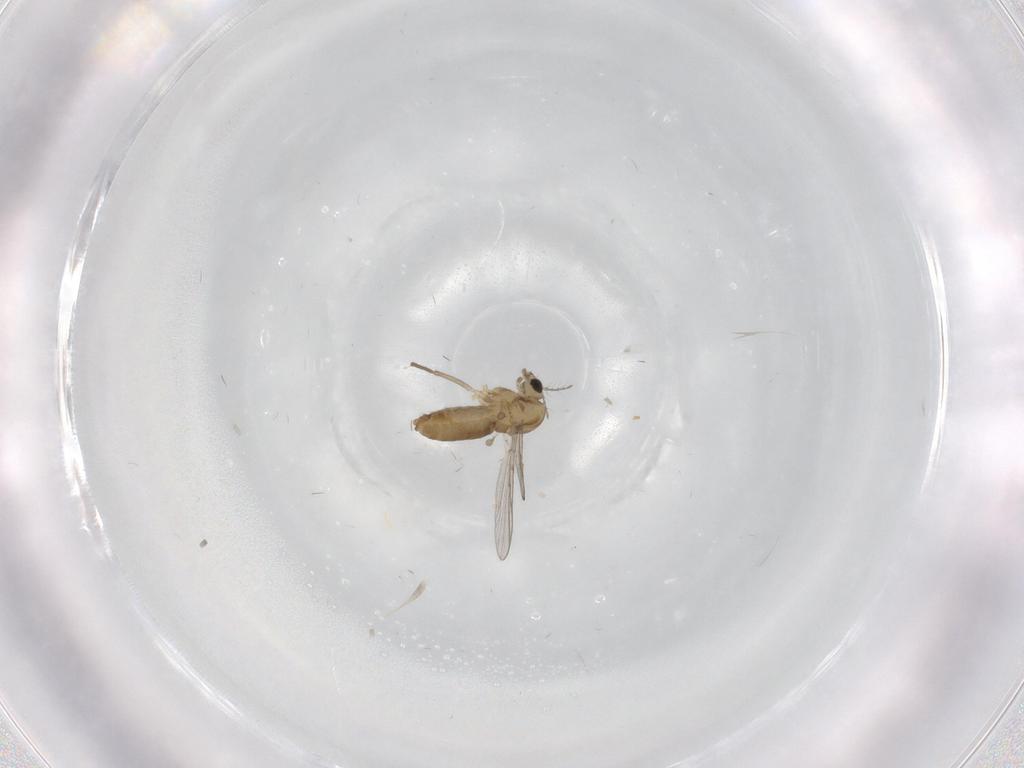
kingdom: Animalia
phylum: Arthropoda
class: Insecta
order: Diptera
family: Chironomidae
